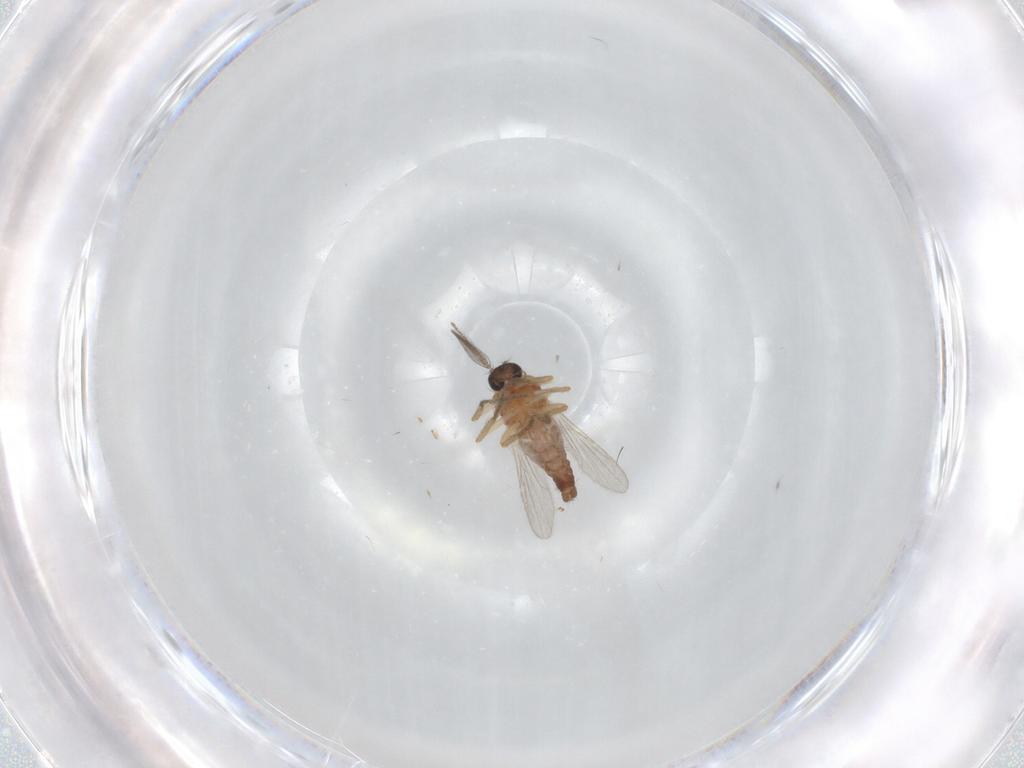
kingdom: Animalia
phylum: Arthropoda
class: Insecta
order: Diptera
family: Ceratopogonidae
